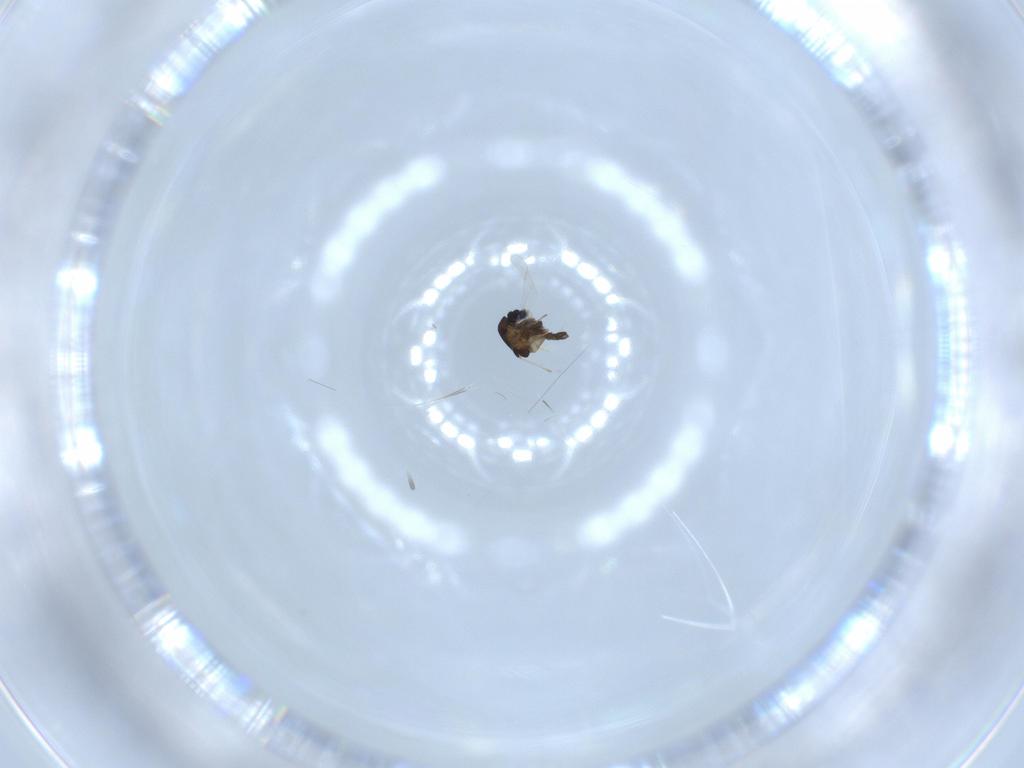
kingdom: Animalia
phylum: Arthropoda
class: Insecta
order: Diptera
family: Chironomidae
